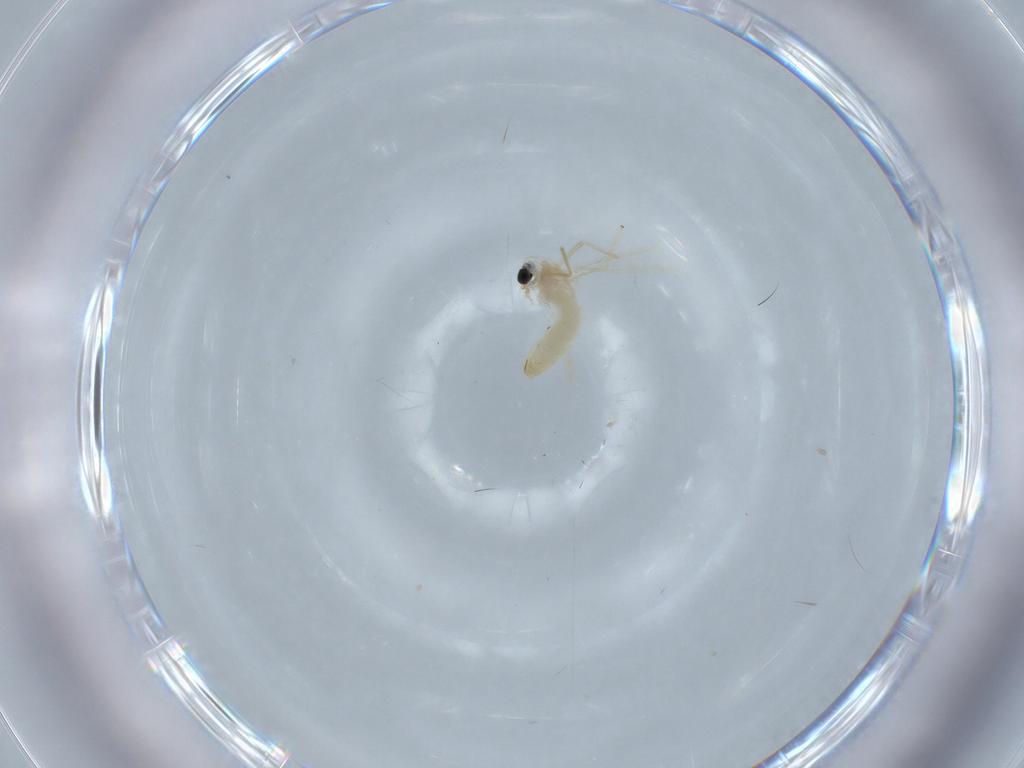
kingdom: Animalia
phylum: Arthropoda
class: Insecta
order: Diptera
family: Chironomidae
